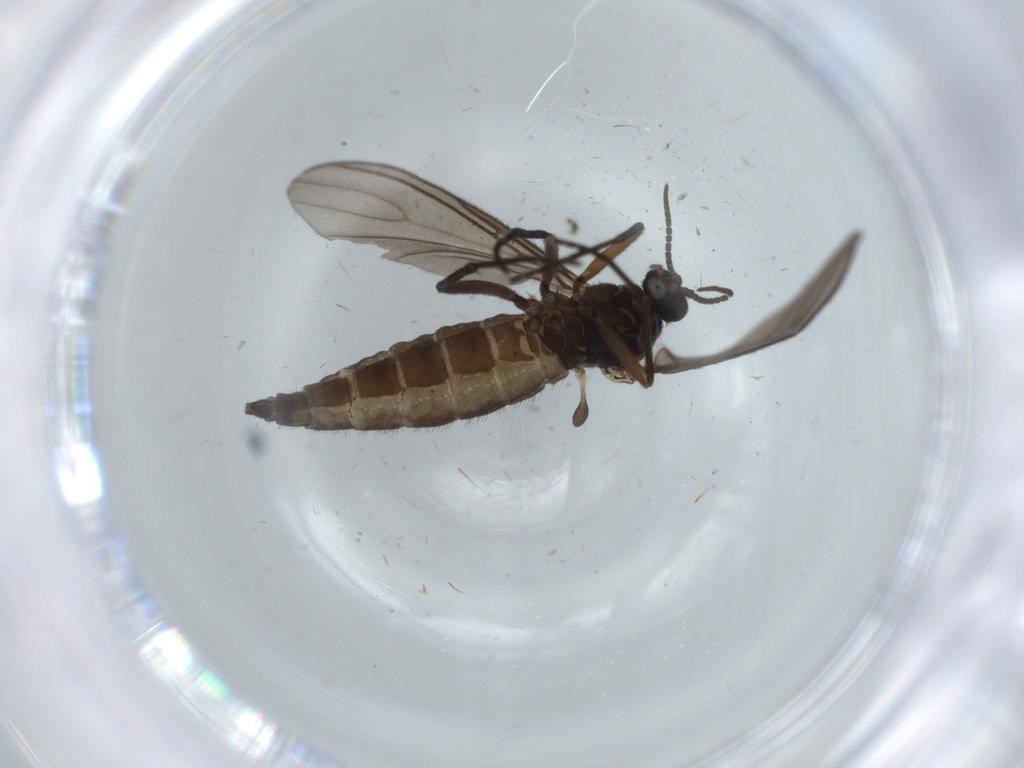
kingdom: Animalia
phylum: Arthropoda
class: Insecta
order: Diptera
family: Sciaridae
